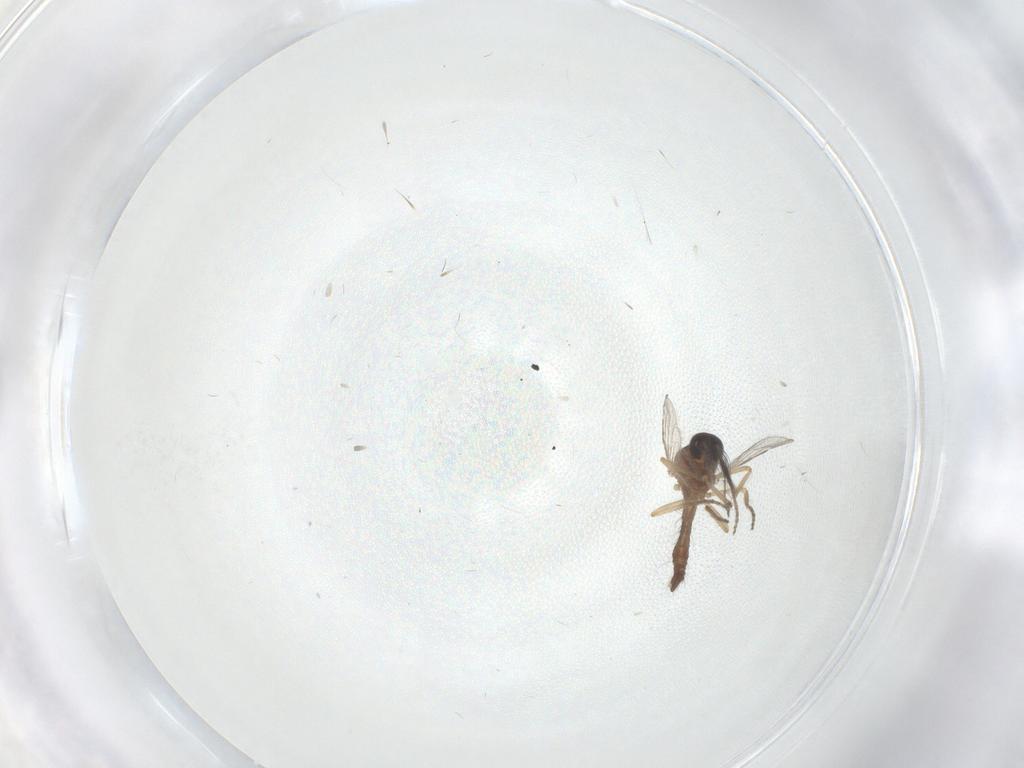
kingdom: Animalia
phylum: Arthropoda
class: Insecta
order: Diptera
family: Ceratopogonidae
